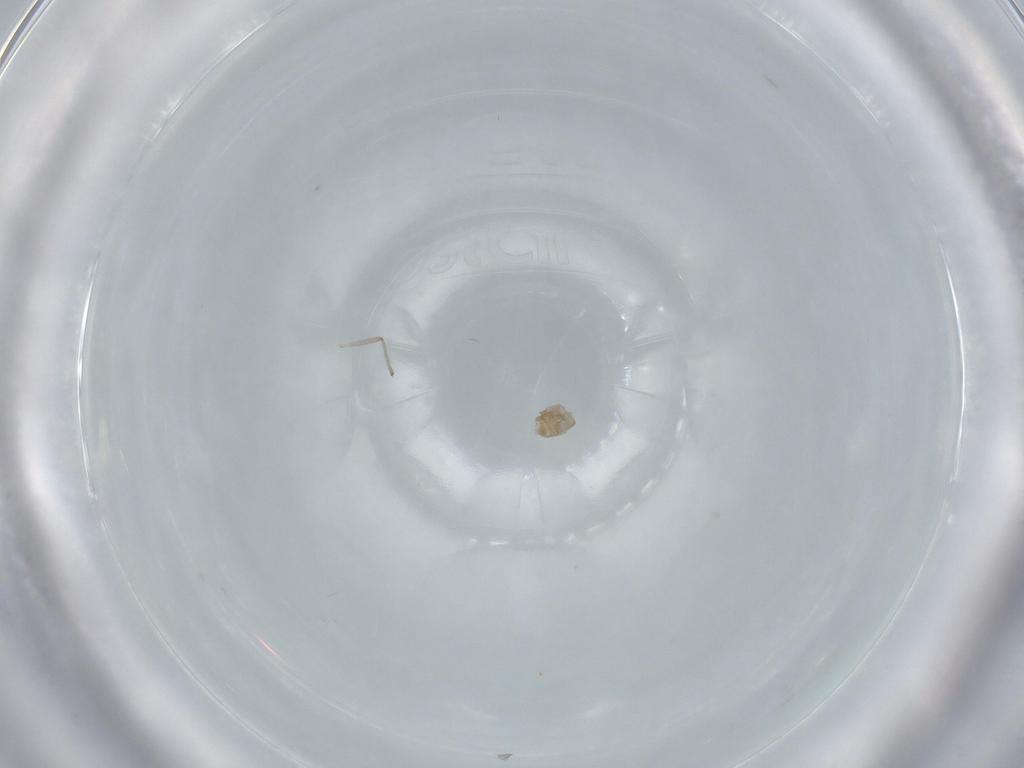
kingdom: Animalia
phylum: Arthropoda
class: Insecta
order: Diptera
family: Chironomidae
